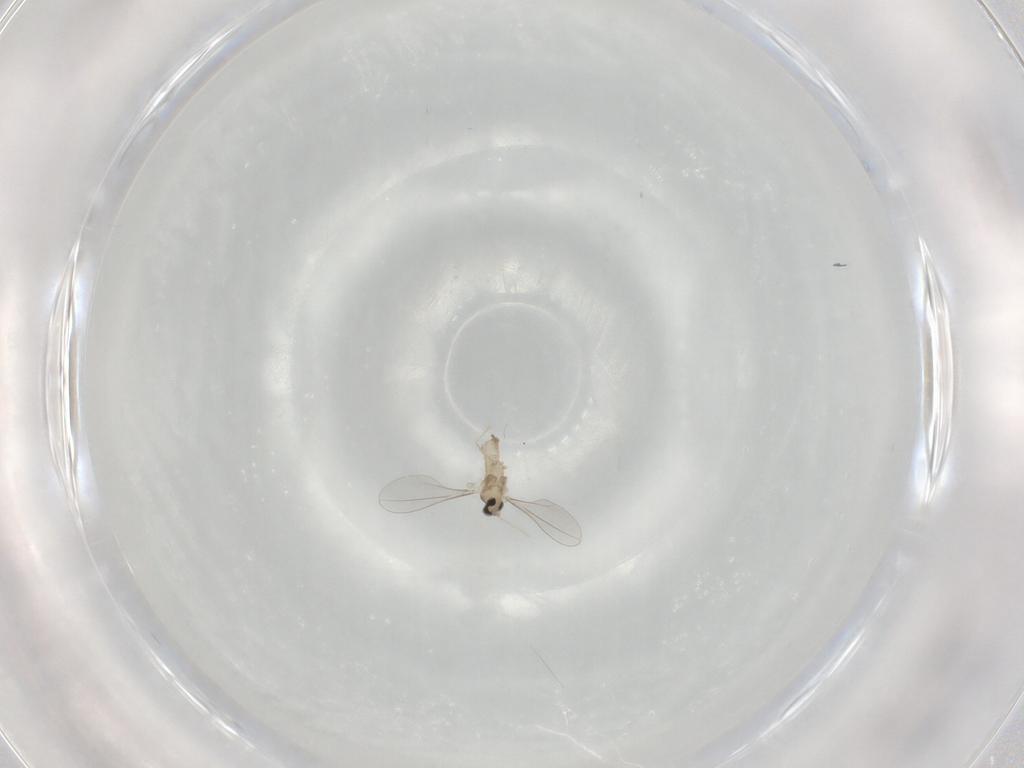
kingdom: Animalia
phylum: Arthropoda
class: Insecta
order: Diptera
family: Cecidomyiidae
